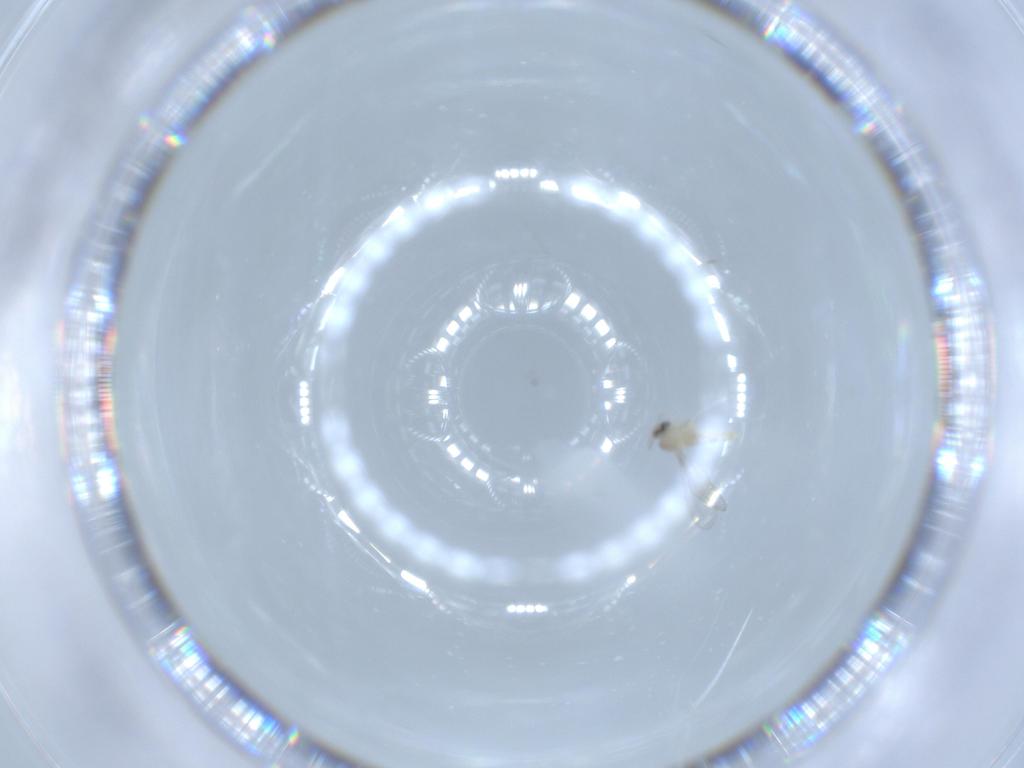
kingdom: Animalia
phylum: Arthropoda
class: Insecta
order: Diptera
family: Cecidomyiidae
